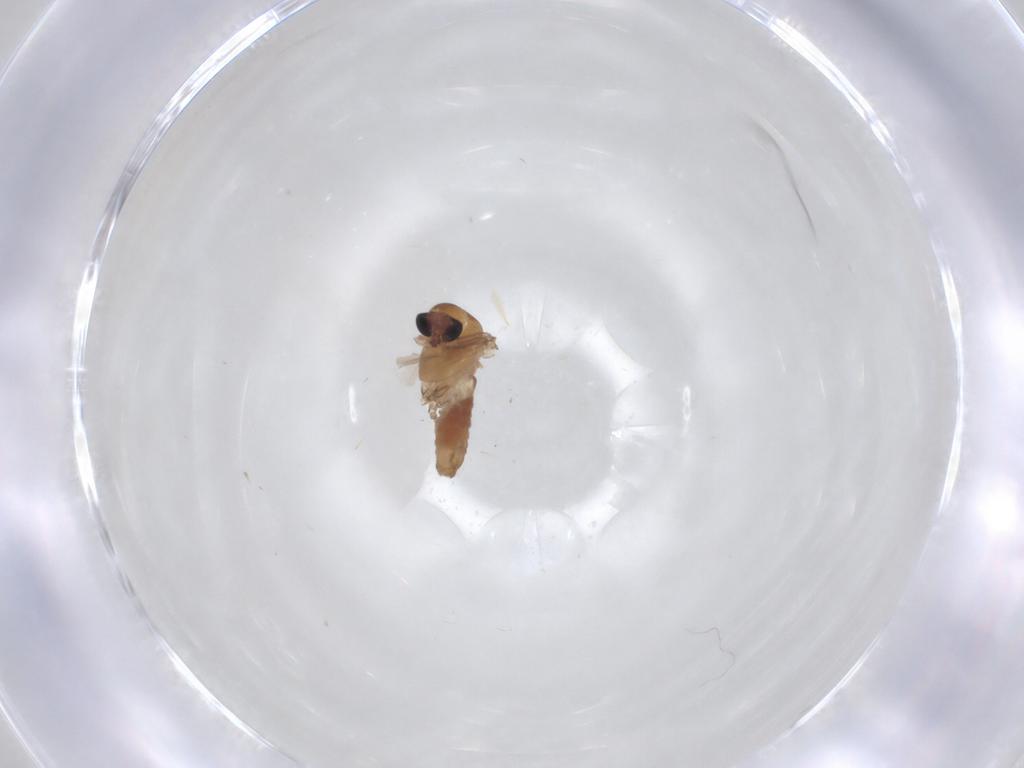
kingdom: Animalia
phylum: Arthropoda
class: Insecta
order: Diptera
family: Chironomidae
